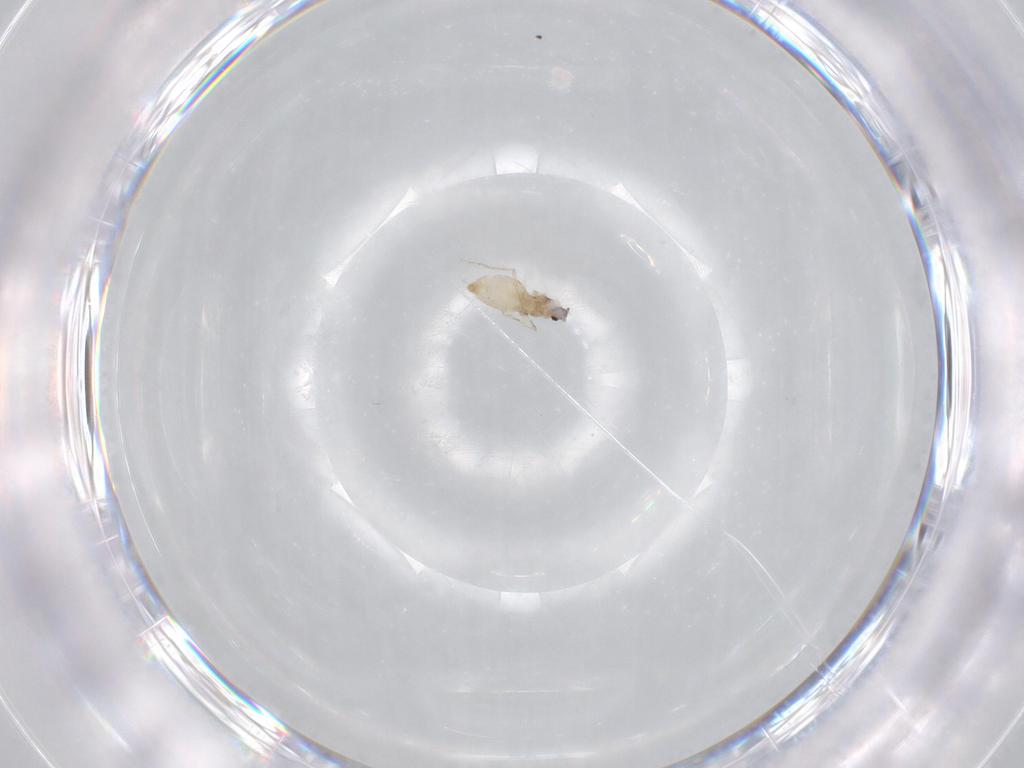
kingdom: Animalia
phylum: Arthropoda
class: Insecta
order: Diptera
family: Cecidomyiidae
